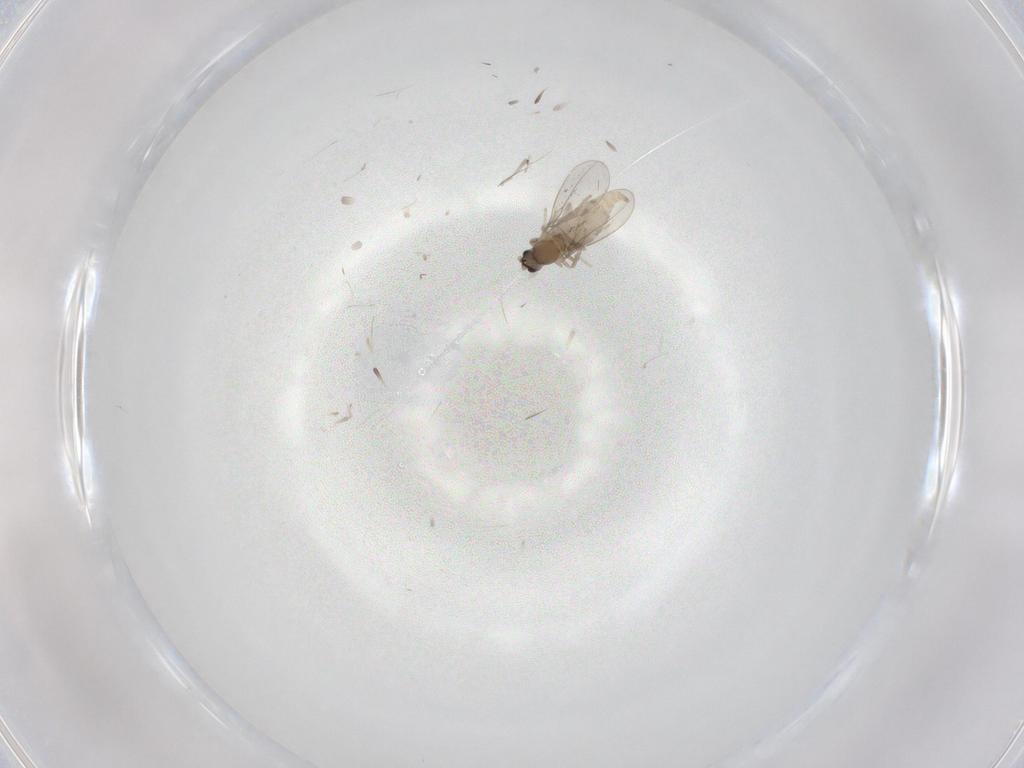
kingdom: Animalia
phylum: Arthropoda
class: Insecta
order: Diptera
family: Cecidomyiidae
